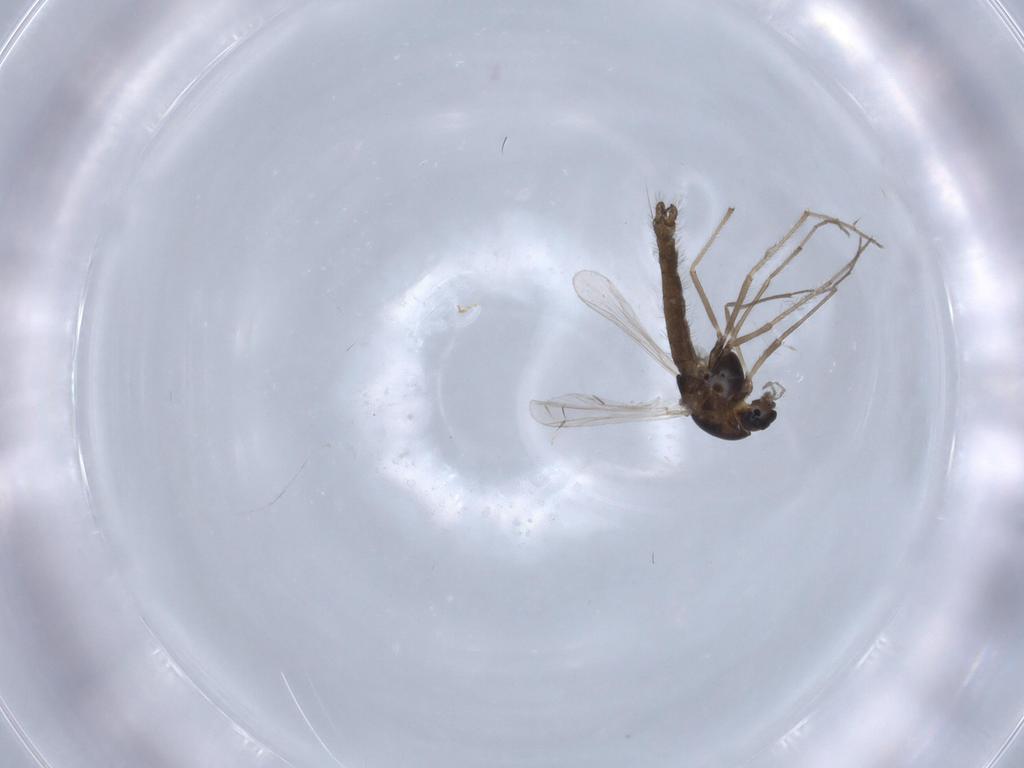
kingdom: Animalia
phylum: Arthropoda
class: Insecta
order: Diptera
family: Chironomidae
